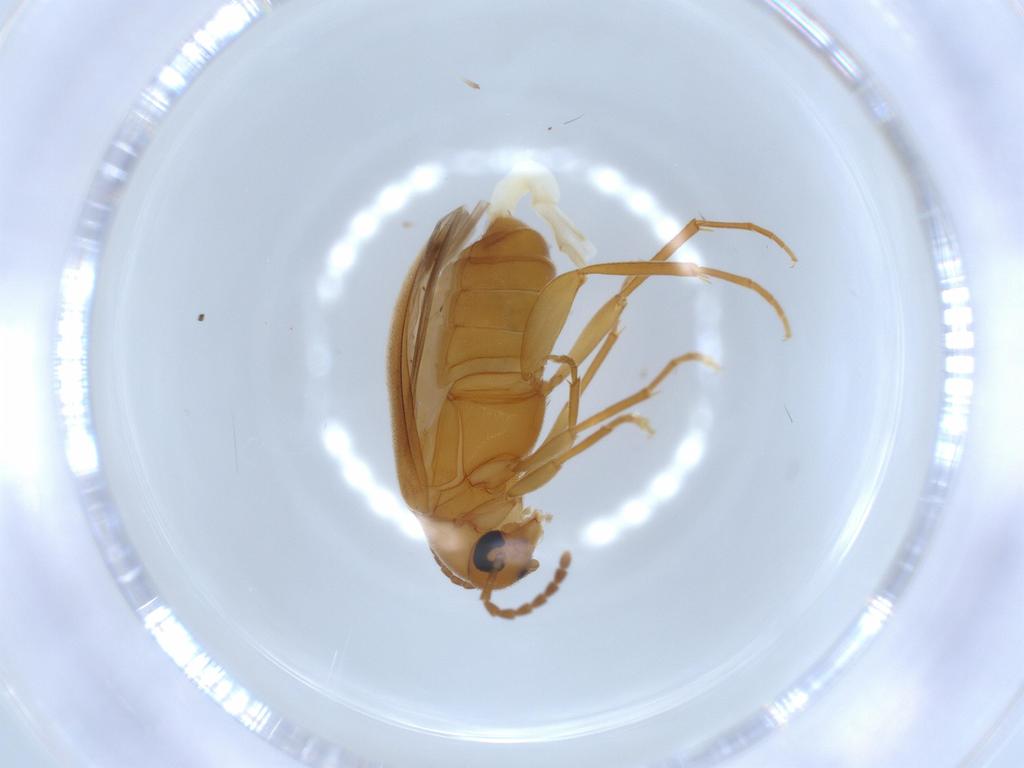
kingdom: Animalia
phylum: Arthropoda
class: Insecta
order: Coleoptera
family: Scraptiidae
